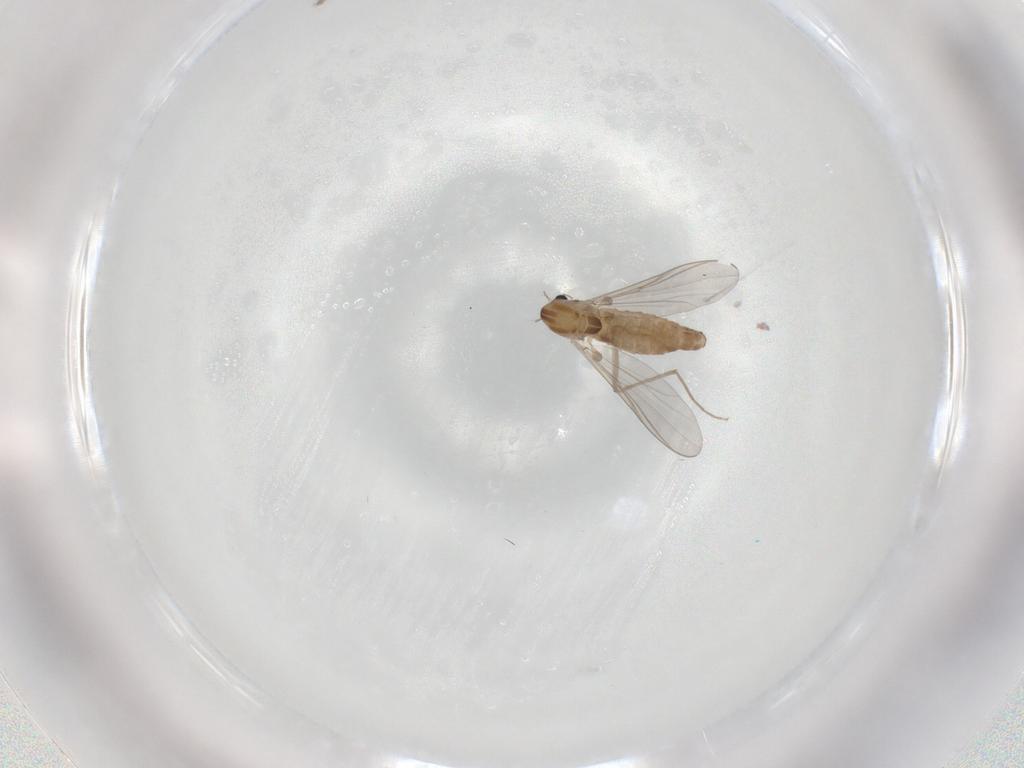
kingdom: Animalia
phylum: Arthropoda
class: Insecta
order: Diptera
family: Chironomidae
